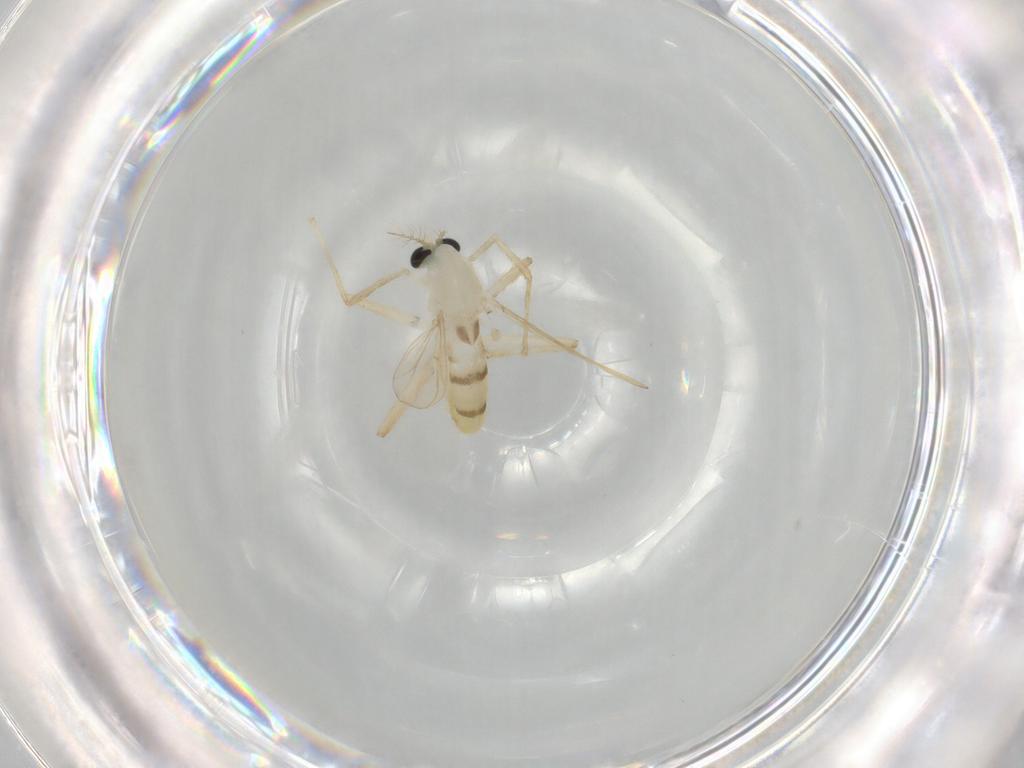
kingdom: Animalia
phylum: Arthropoda
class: Insecta
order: Diptera
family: Chironomidae
